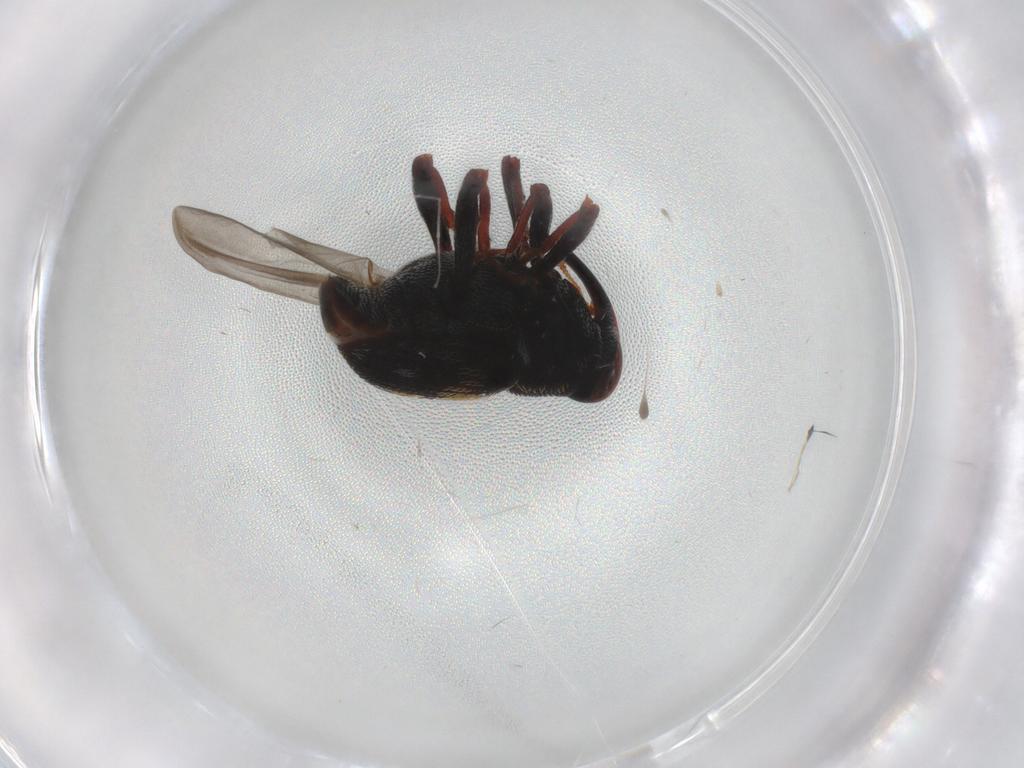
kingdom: Animalia
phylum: Arthropoda
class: Insecta
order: Coleoptera
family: Curculionidae
